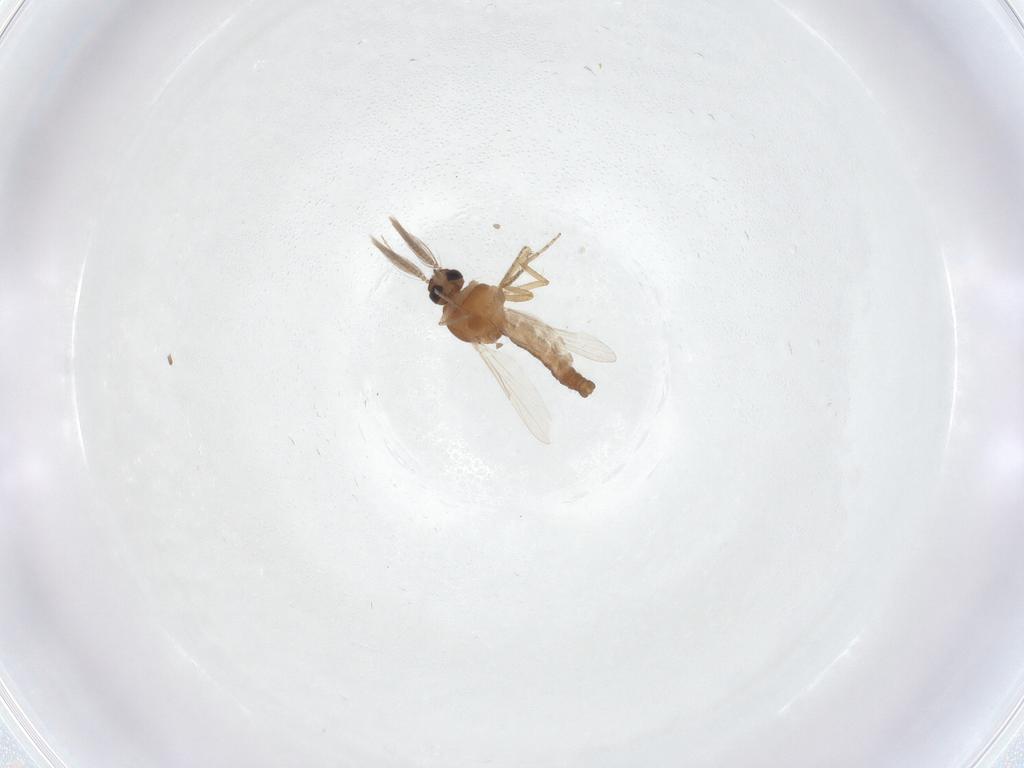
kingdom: Animalia
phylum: Arthropoda
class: Insecta
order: Diptera
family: Ceratopogonidae
